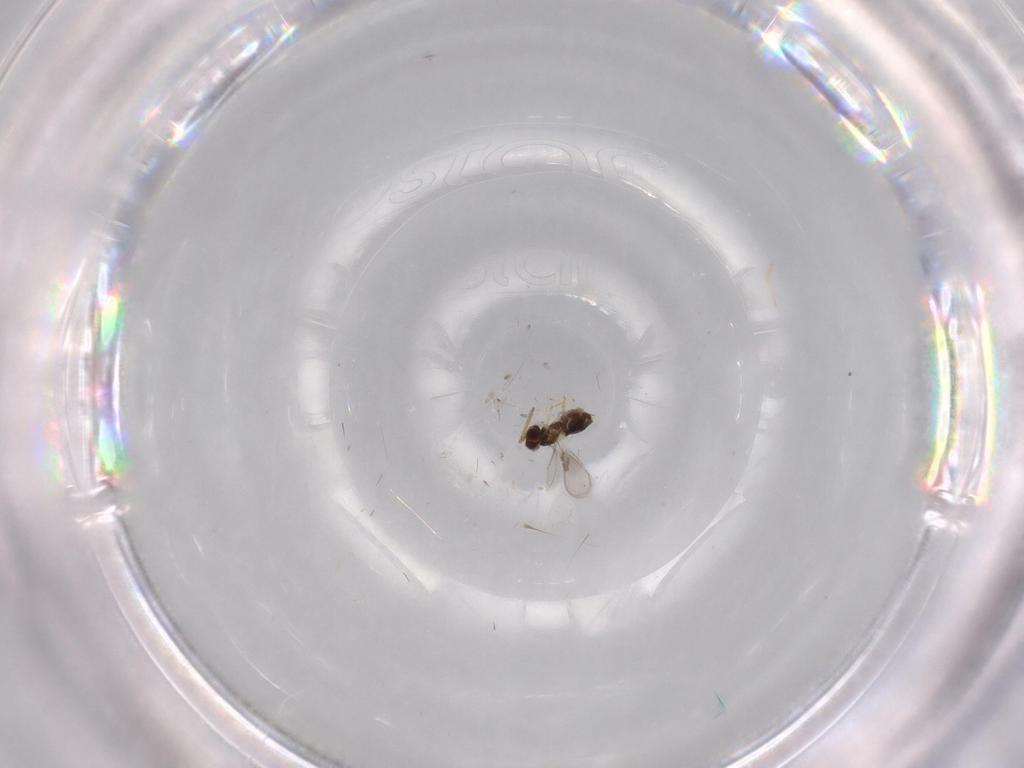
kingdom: Animalia
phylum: Arthropoda
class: Insecta
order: Hymenoptera
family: Aphelinidae
